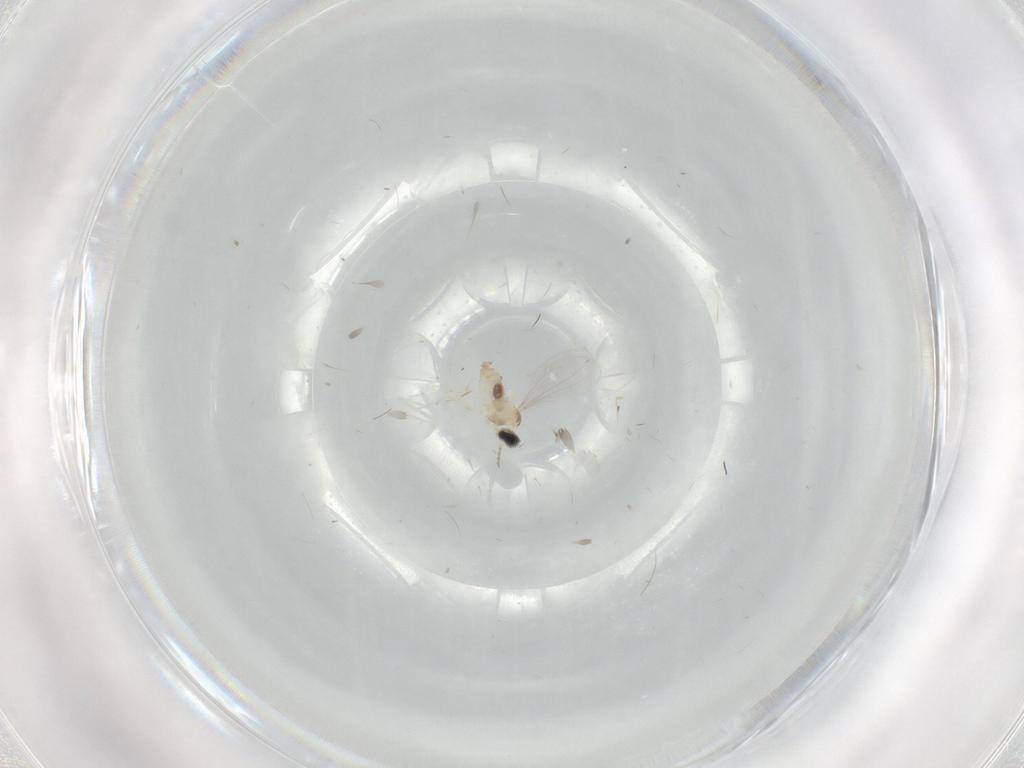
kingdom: Animalia
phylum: Arthropoda
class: Insecta
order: Diptera
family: Cecidomyiidae
